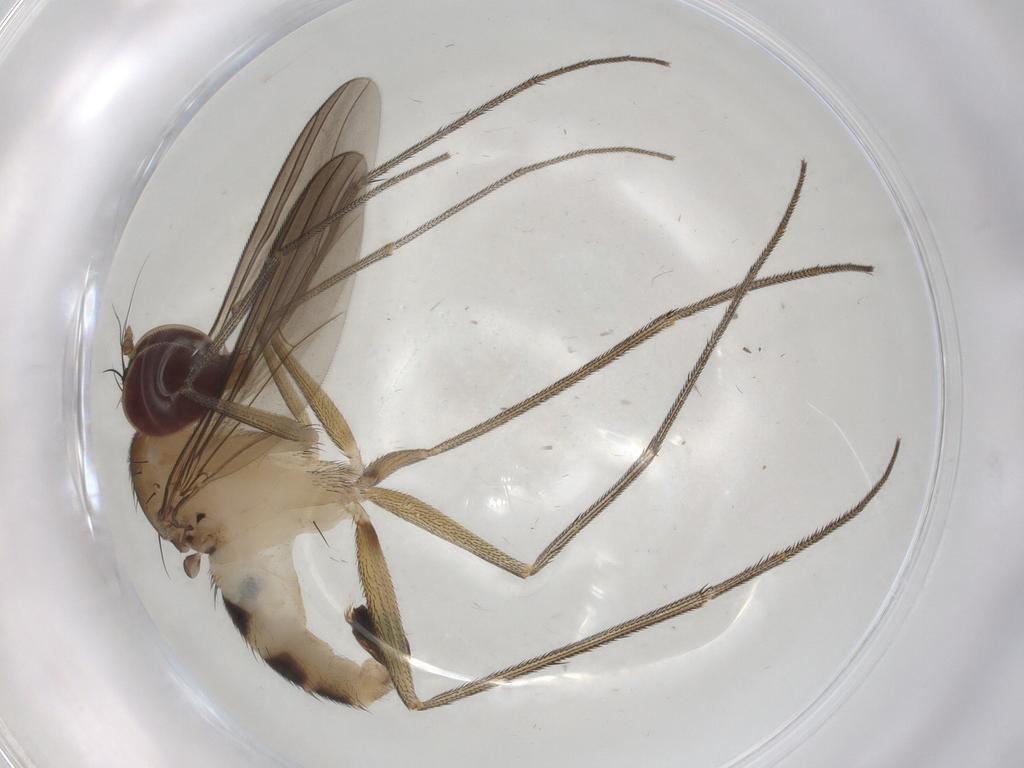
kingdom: Animalia
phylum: Arthropoda
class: Insecta
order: Diptera
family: Dolichopodidae
